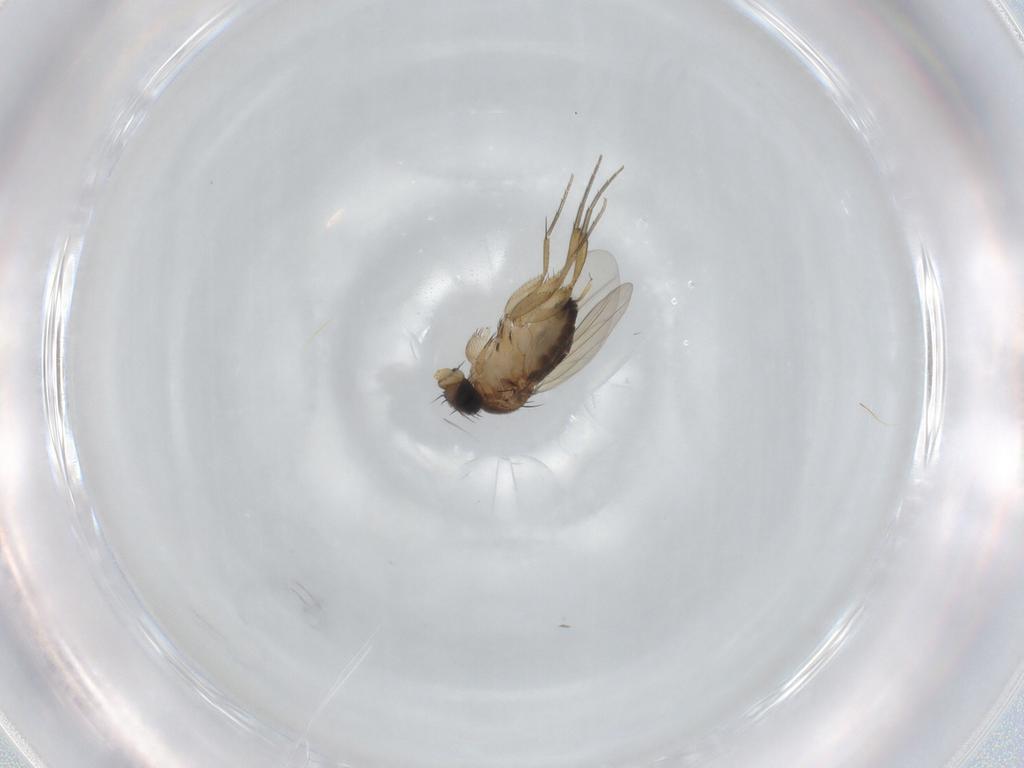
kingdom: Animalia
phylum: Arthropoda
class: Insecta
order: Diptera
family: Phoridae
